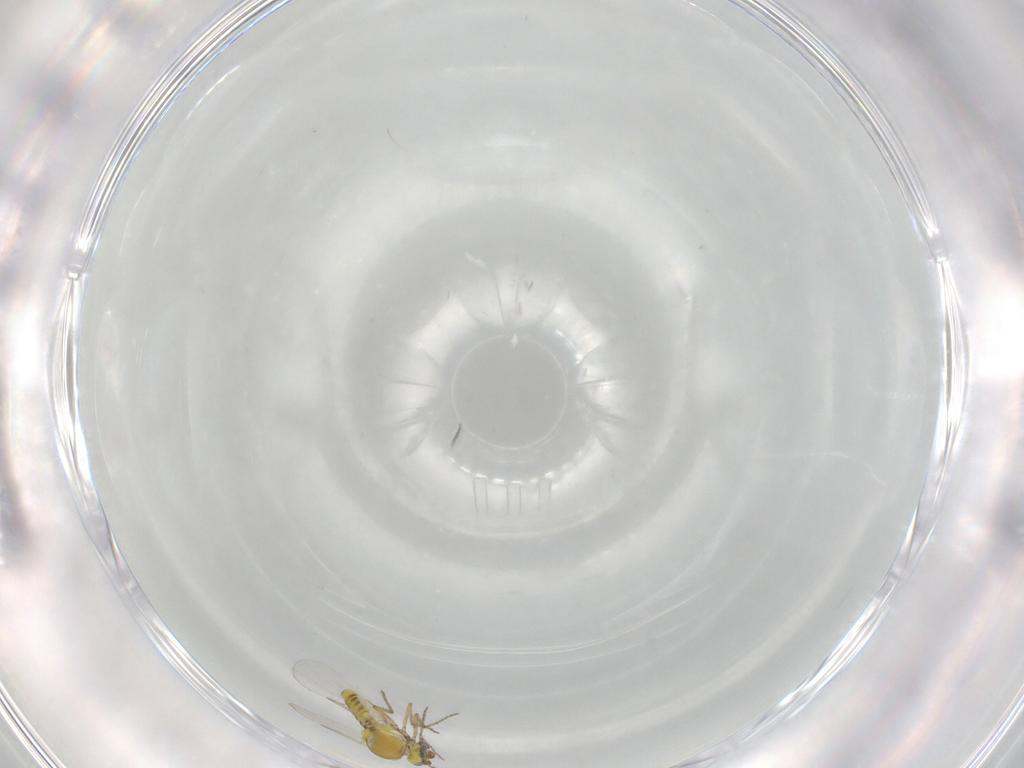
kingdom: Animalia
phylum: Arthropoda
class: Insecta
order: Diptera
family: Ceratopogonidae
